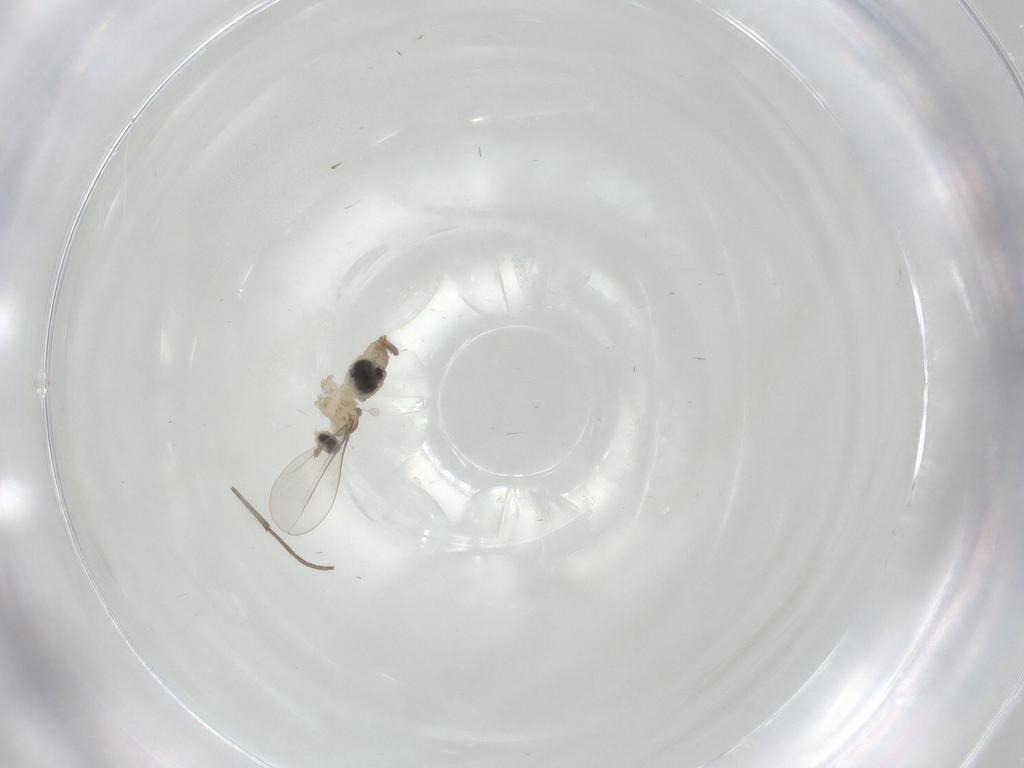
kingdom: Animalia
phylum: Arthropoda
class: Insecta
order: Diptera
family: Cecidomyiidae
